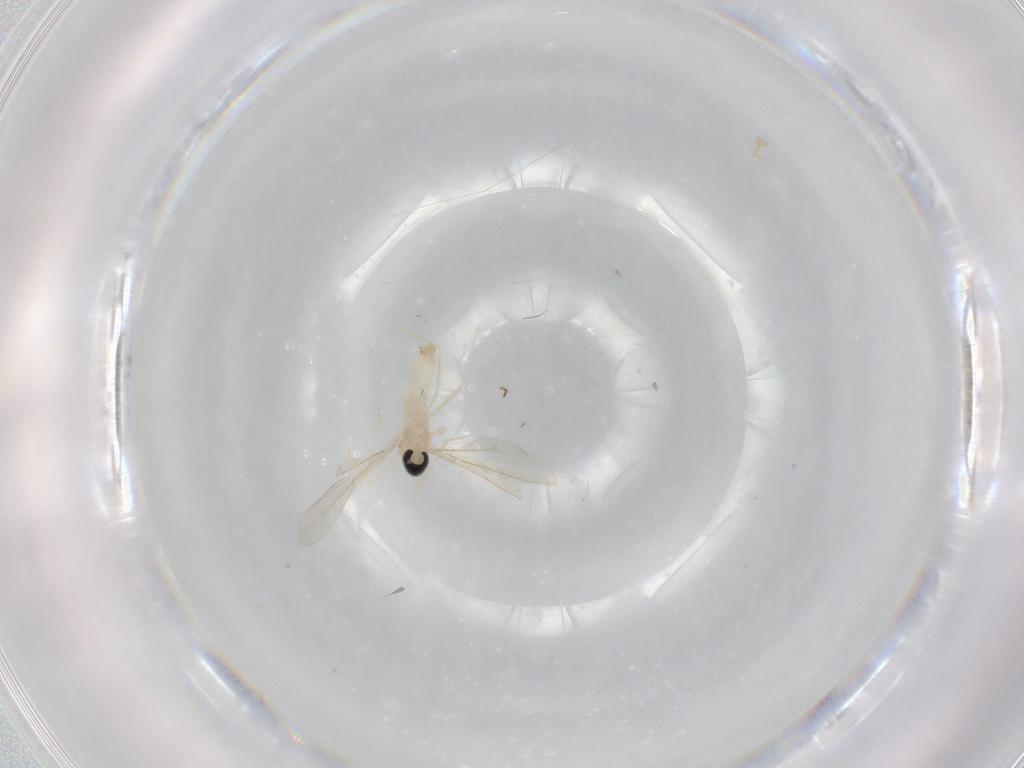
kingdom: Animalia
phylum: Arthropoda
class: Insecta
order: Diptera
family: Cecidomyiidae
